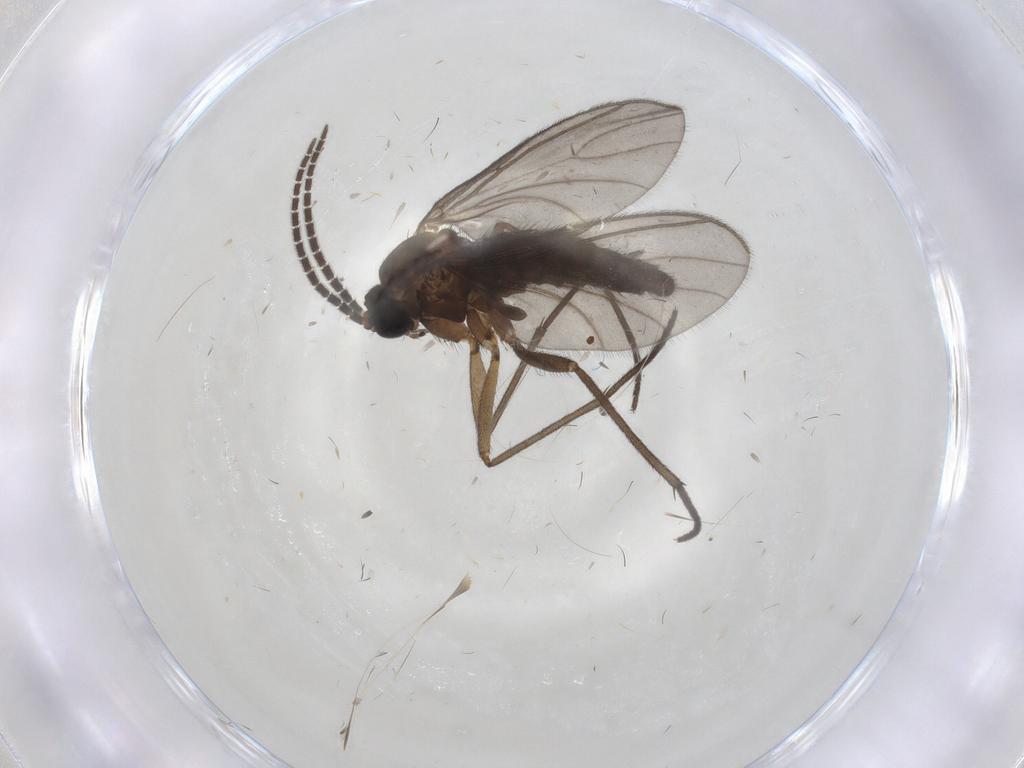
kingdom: Animalia
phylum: Arthropoda
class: Insecta
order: Diptera
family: Sciaridae
